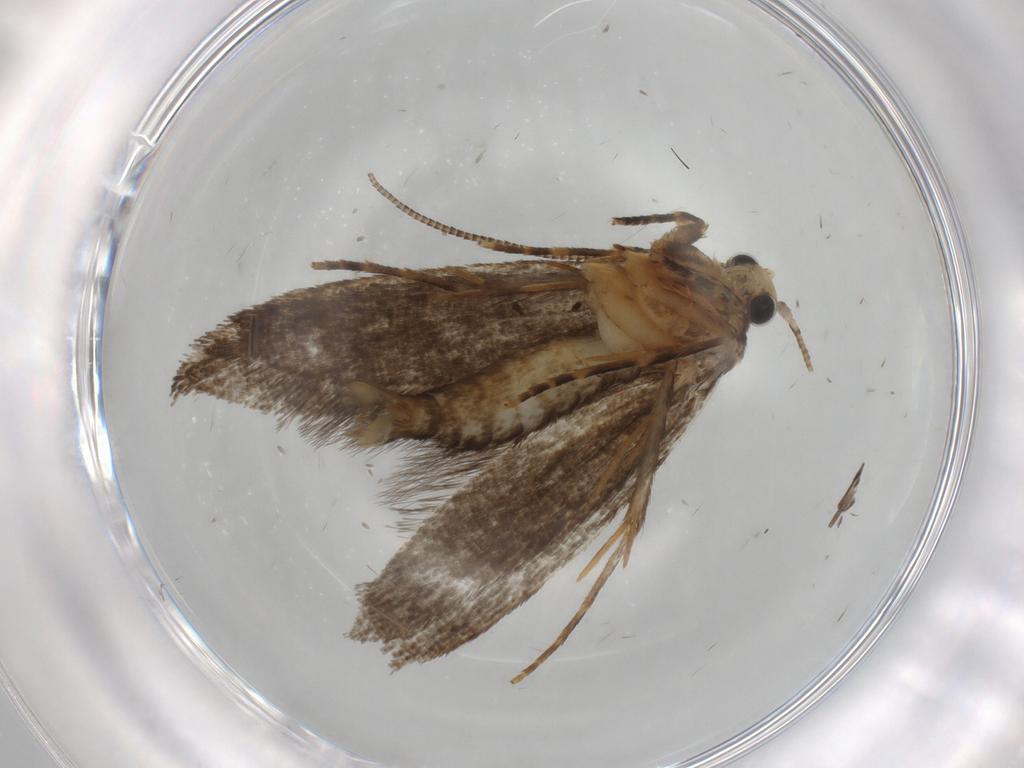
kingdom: Animalia
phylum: Arthropoda
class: Insecta
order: Lepidoptera
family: Tineidae
